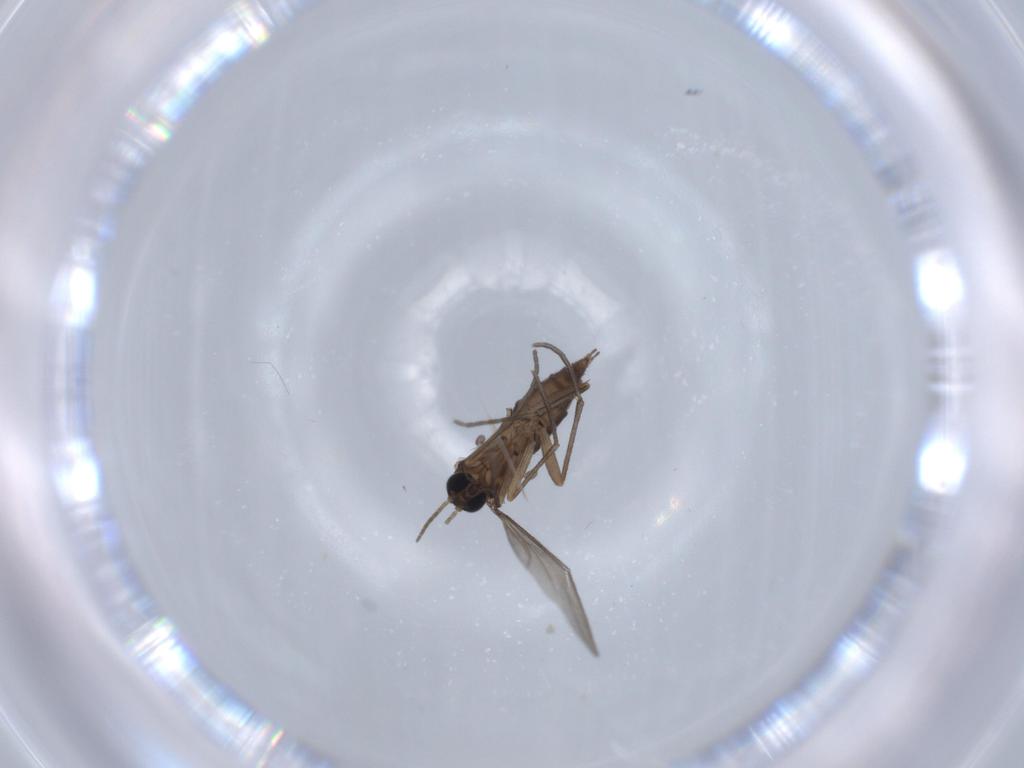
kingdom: Animalia
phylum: Arthropoda
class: Insecta
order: Diptera
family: Sciaridae
